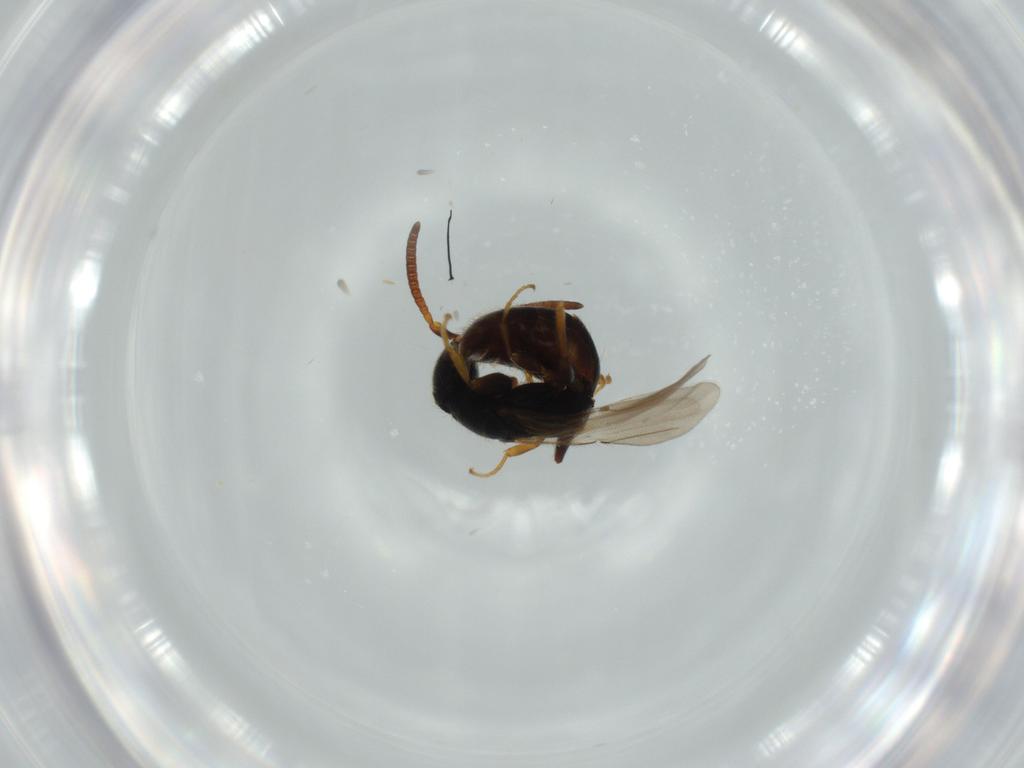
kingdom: Animalia
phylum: Arthropoda
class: Insecta
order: Hymenoptera
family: Bethylidae
